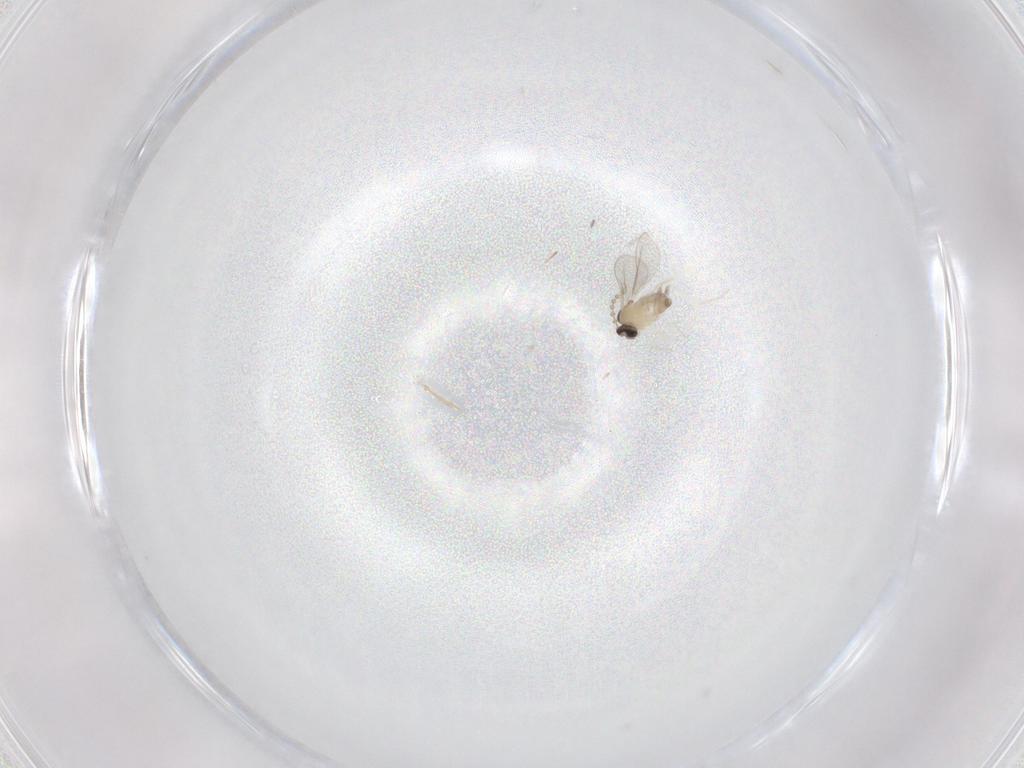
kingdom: Animalia
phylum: Arthropoda
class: Insecta
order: Diptera
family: Cecidomyiidae
